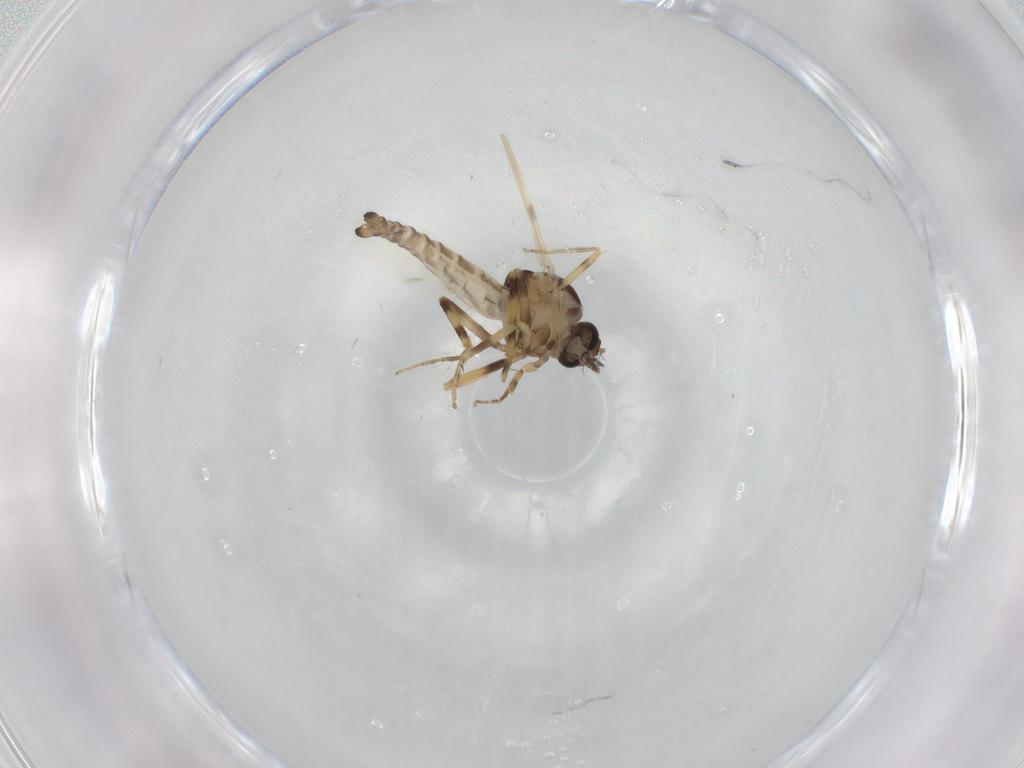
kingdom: Animalia
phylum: Arthropoda
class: Insecta
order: Diptera
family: Ceratopogonidae
